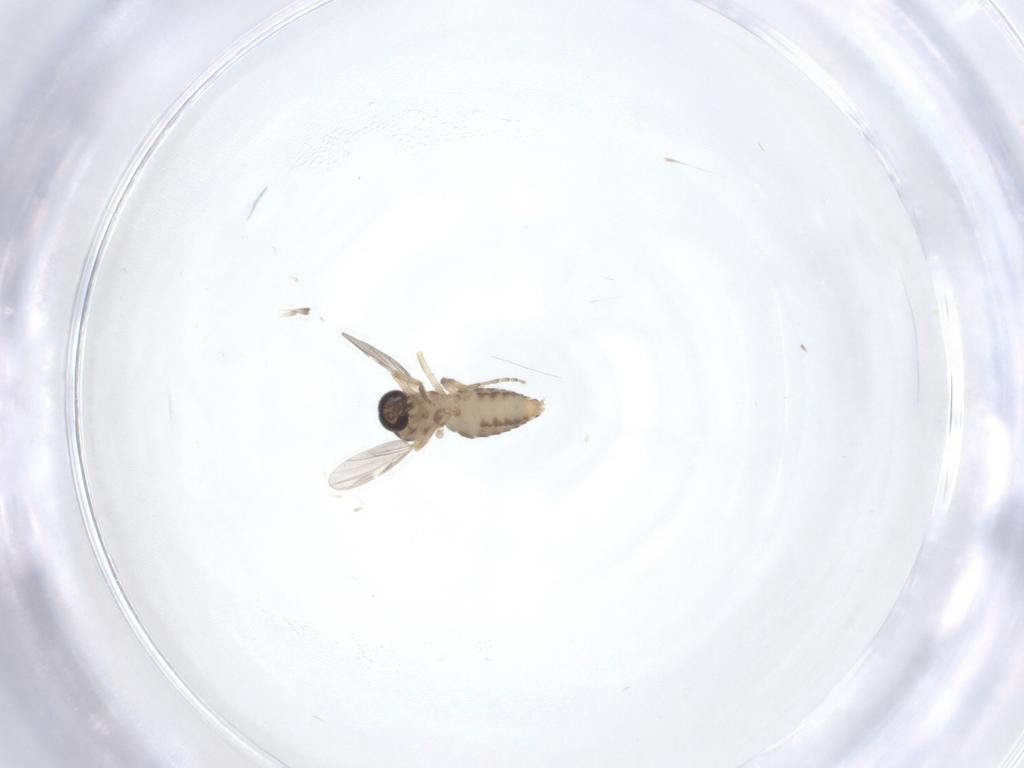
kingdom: Animalia
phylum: Arthropoda
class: Insecta
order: Diptera
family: Ceratopogonidae
